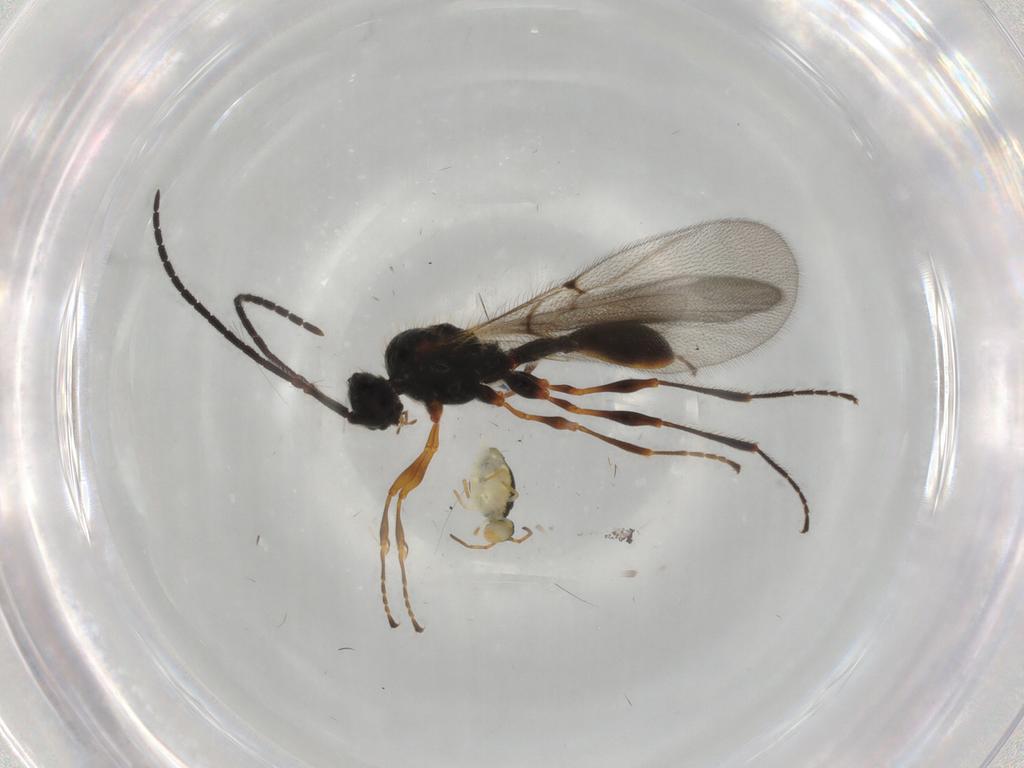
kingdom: Animalia
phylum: Arthropoda
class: Insecta
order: Hymenoptera
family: Diapriidae
